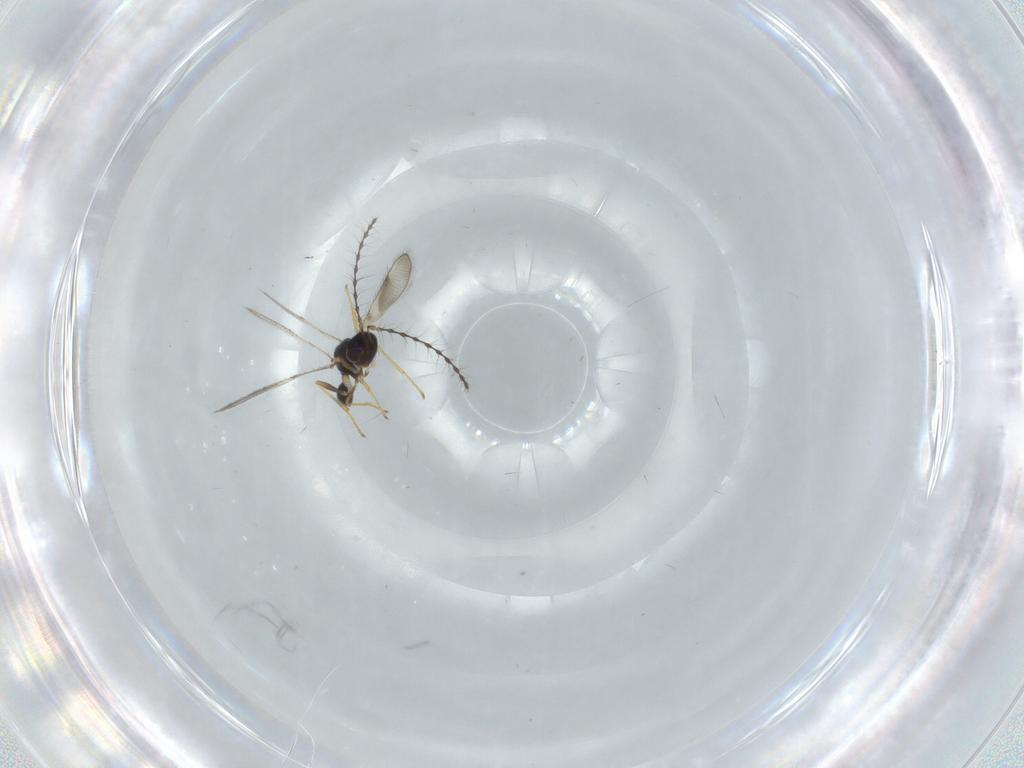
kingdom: Animalia
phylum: Arthropoda
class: Insecta
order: Hymenoptera
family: Diparidae
